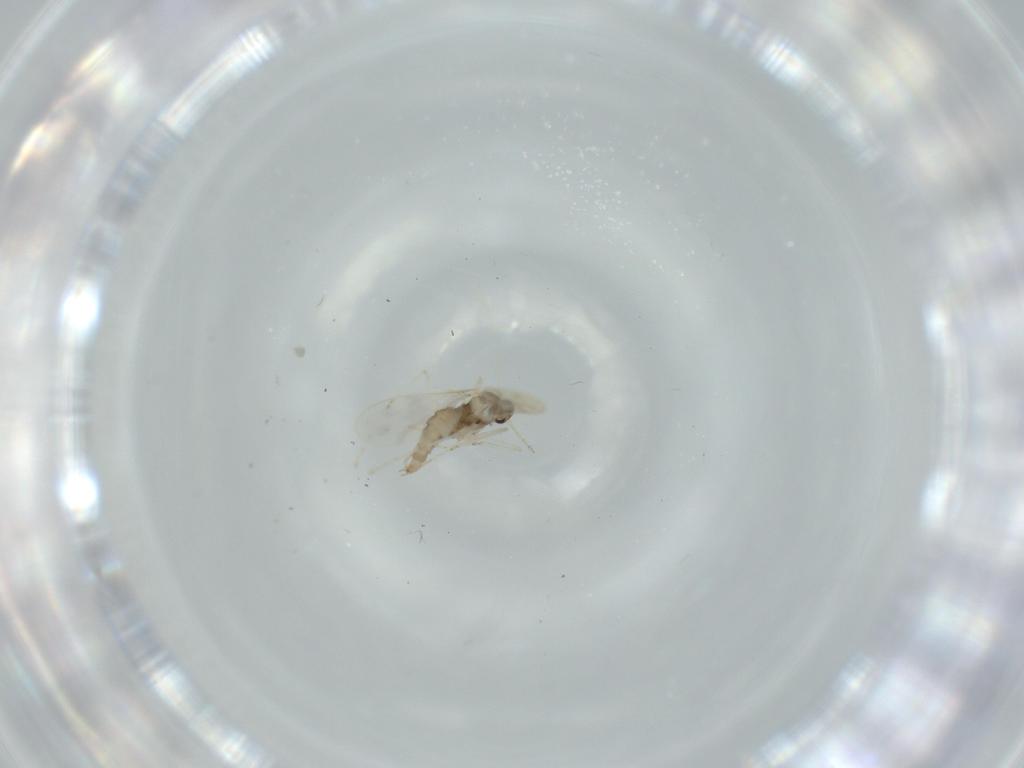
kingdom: Animalia
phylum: Arthropoda
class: Insecta
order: Diptera
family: Cecidomyiidae
